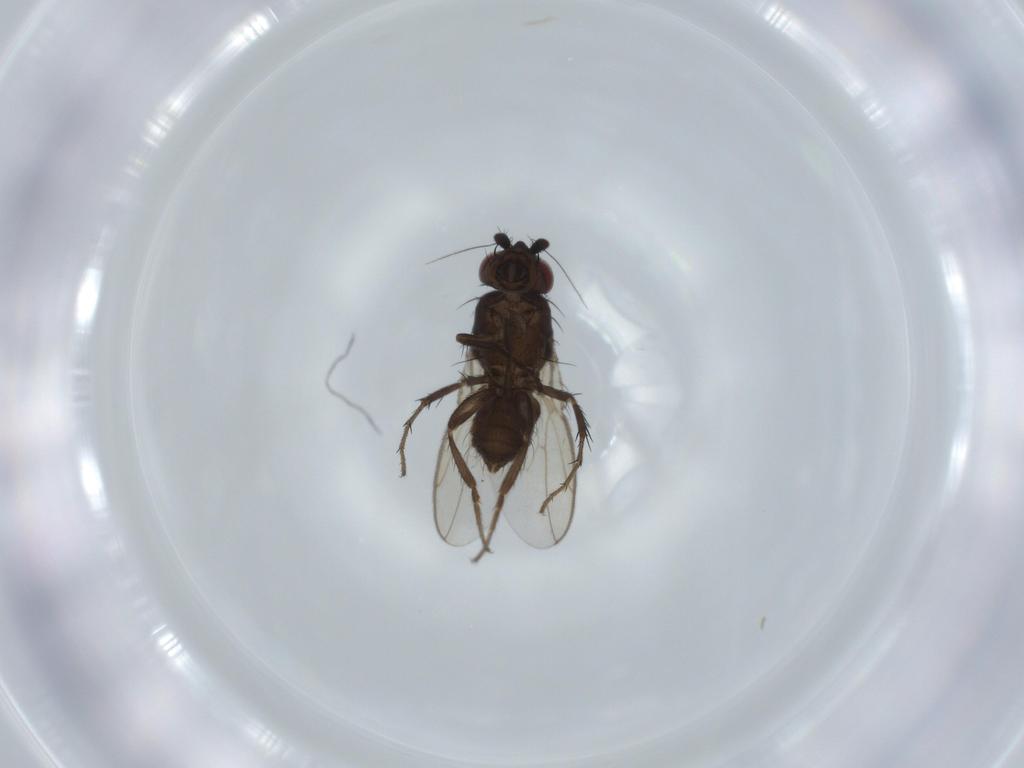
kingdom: Animalia
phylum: Arthropoda
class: Insecta
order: Diptera
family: Sphaeroceridae
